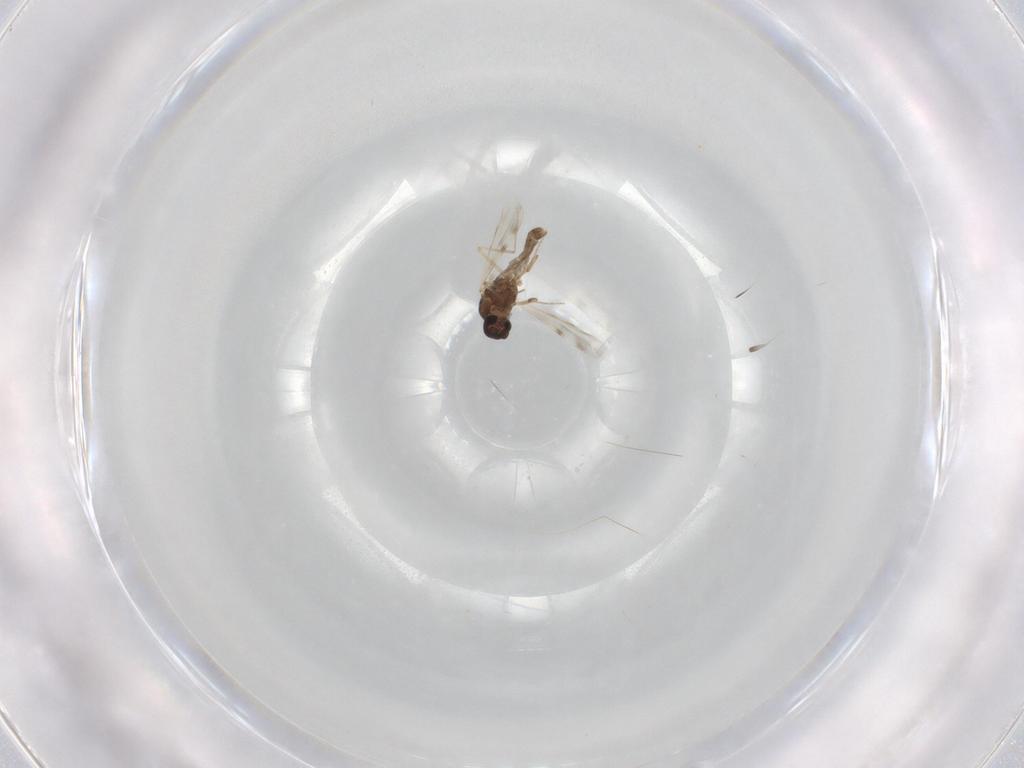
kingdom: Animalia
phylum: Arthropoda
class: Insecta
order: Diptera
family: Ceratopogonidae
